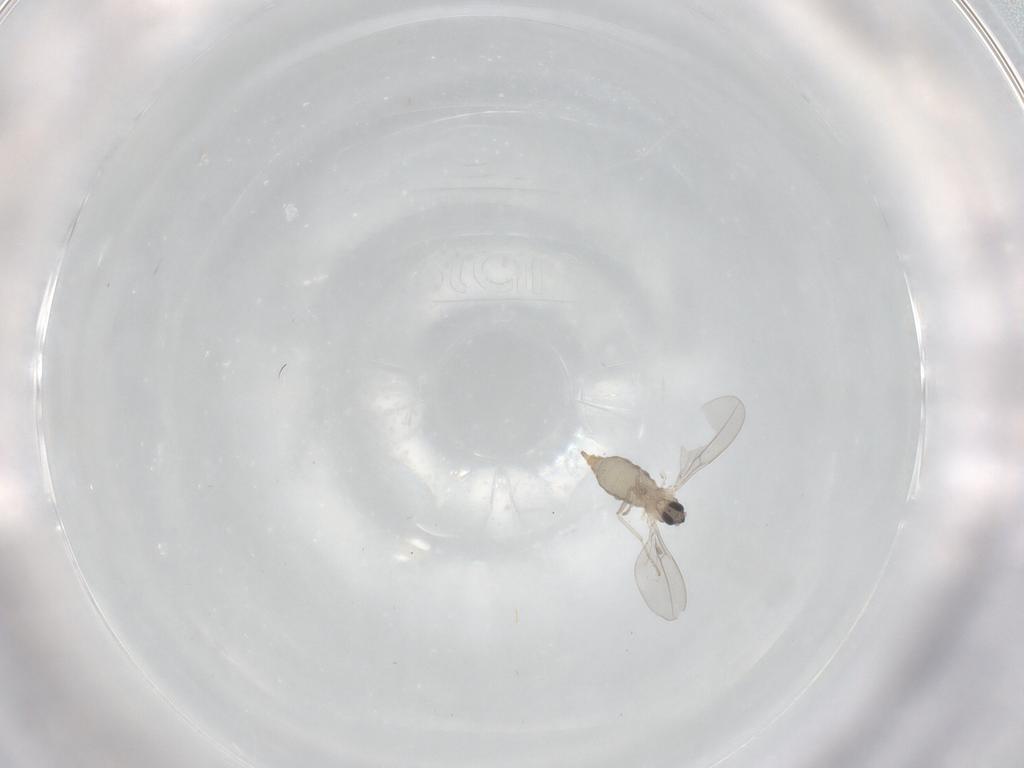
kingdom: Animalia
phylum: Arthropoda
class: Insecta
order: Diptera
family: Cecidomyiidae
